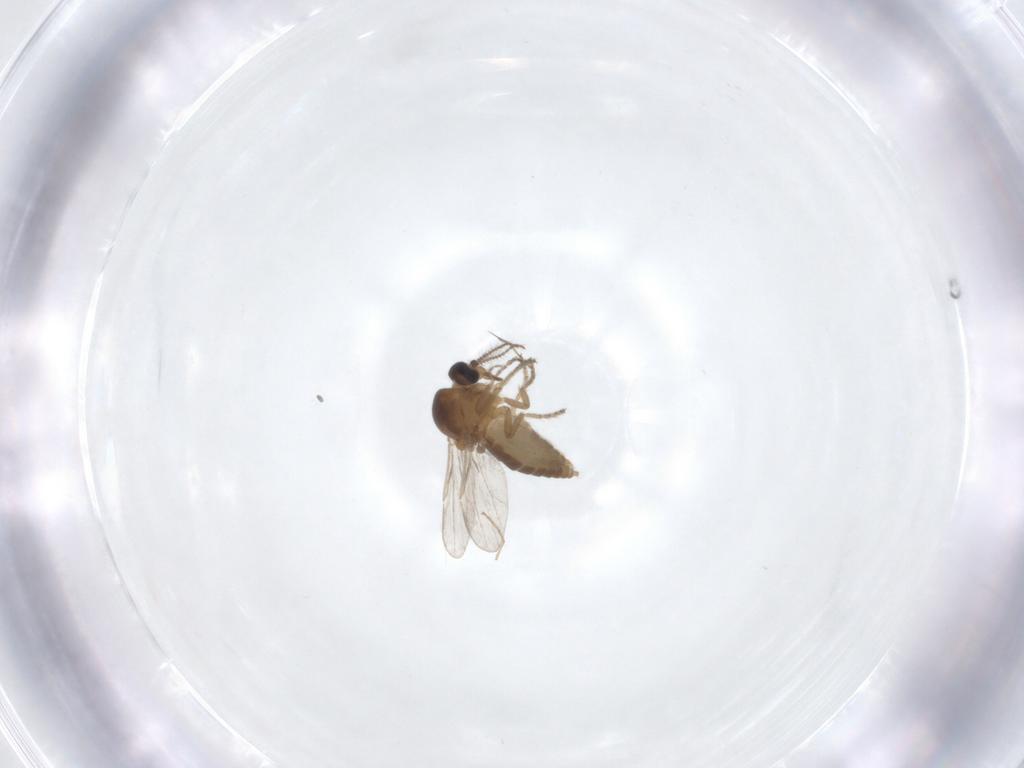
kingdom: Animalia
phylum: Arthropoda
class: Insecta
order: Diptera
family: Ceratopogonidae
